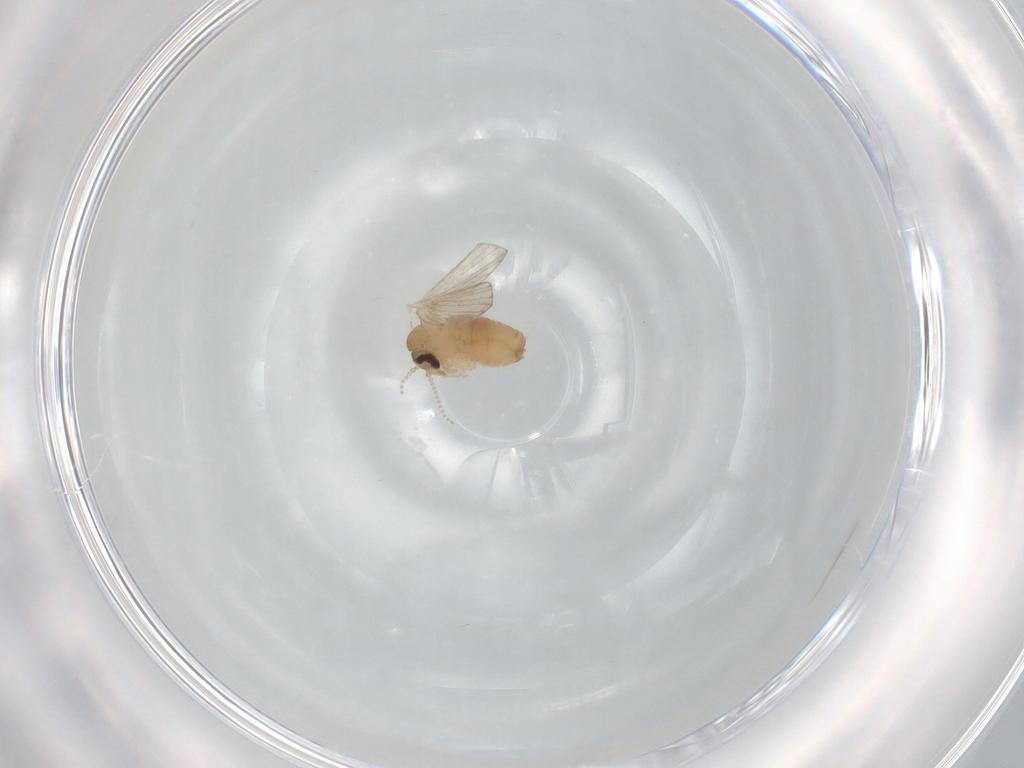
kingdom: Animalia
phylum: Arthropoda
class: Insecta
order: Diptera
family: Psychodidae
